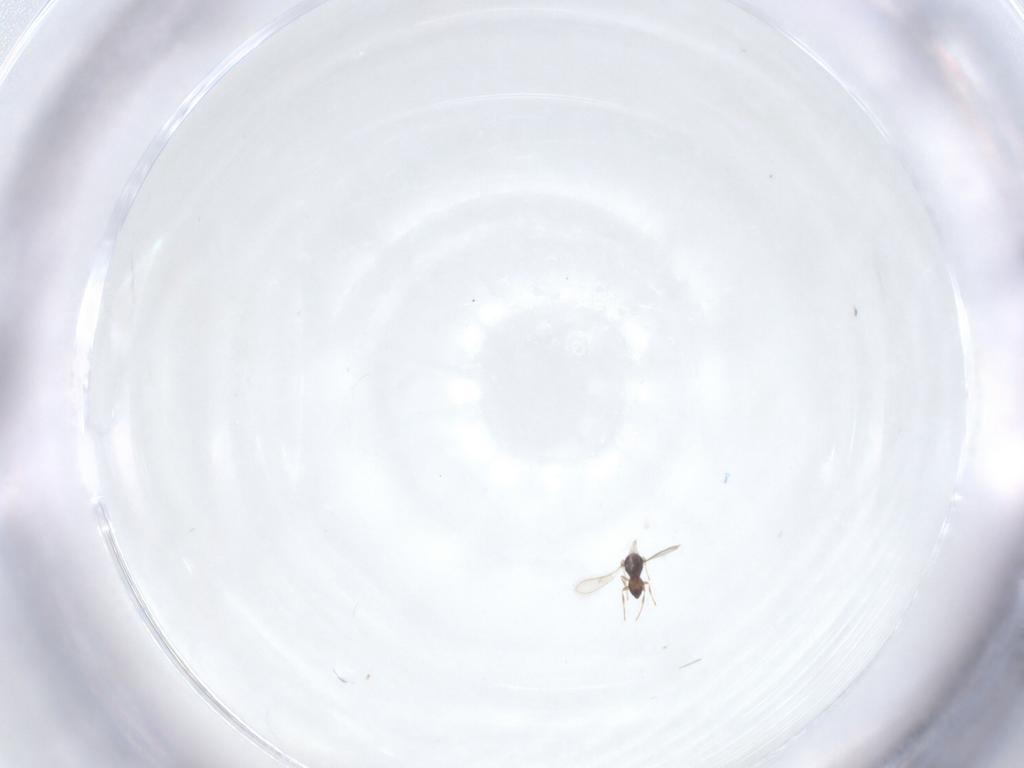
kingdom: Animalia
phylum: Arthropoda
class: Insecta
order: Hymenoptera
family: Scelionidae
